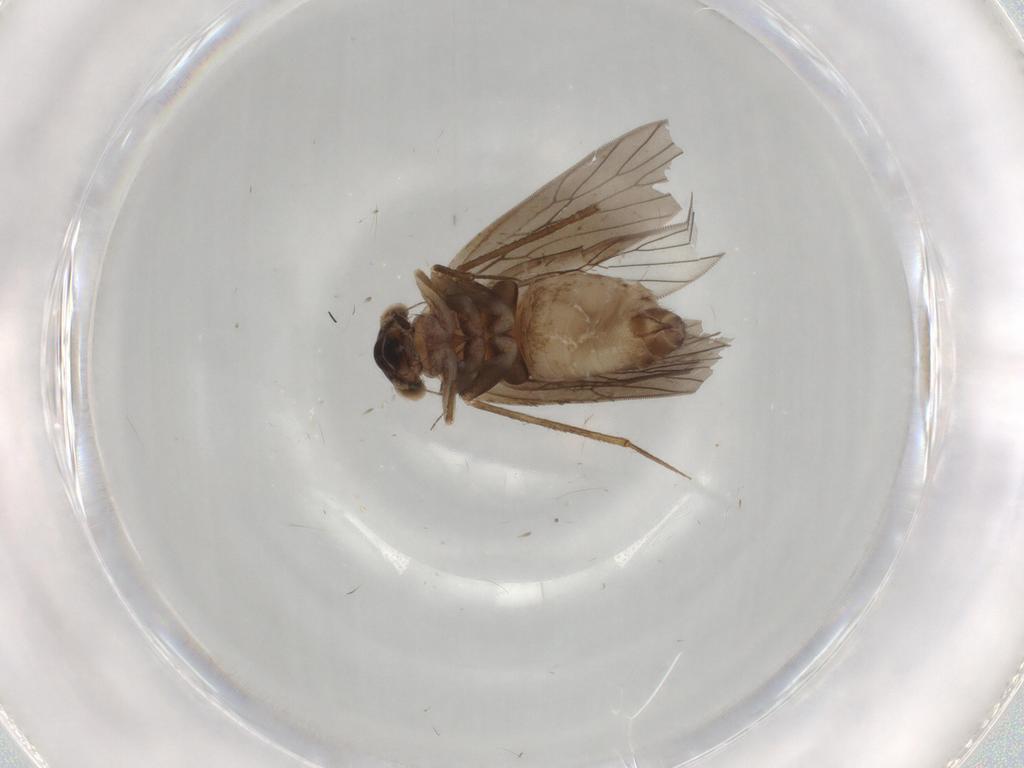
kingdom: Animalia
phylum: Arthropoda
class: Insecta
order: Psocodea
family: Lepidopsocidae
